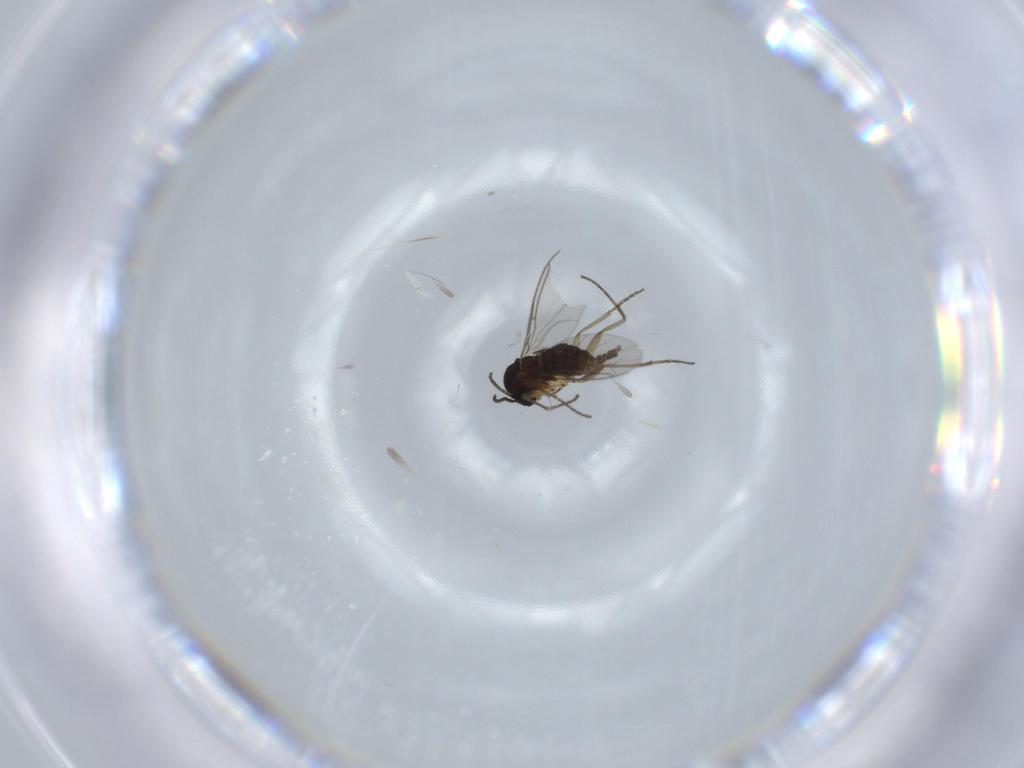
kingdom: Animalia
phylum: Arthropoda
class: Insecta
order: Diptera
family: Sciaridae
